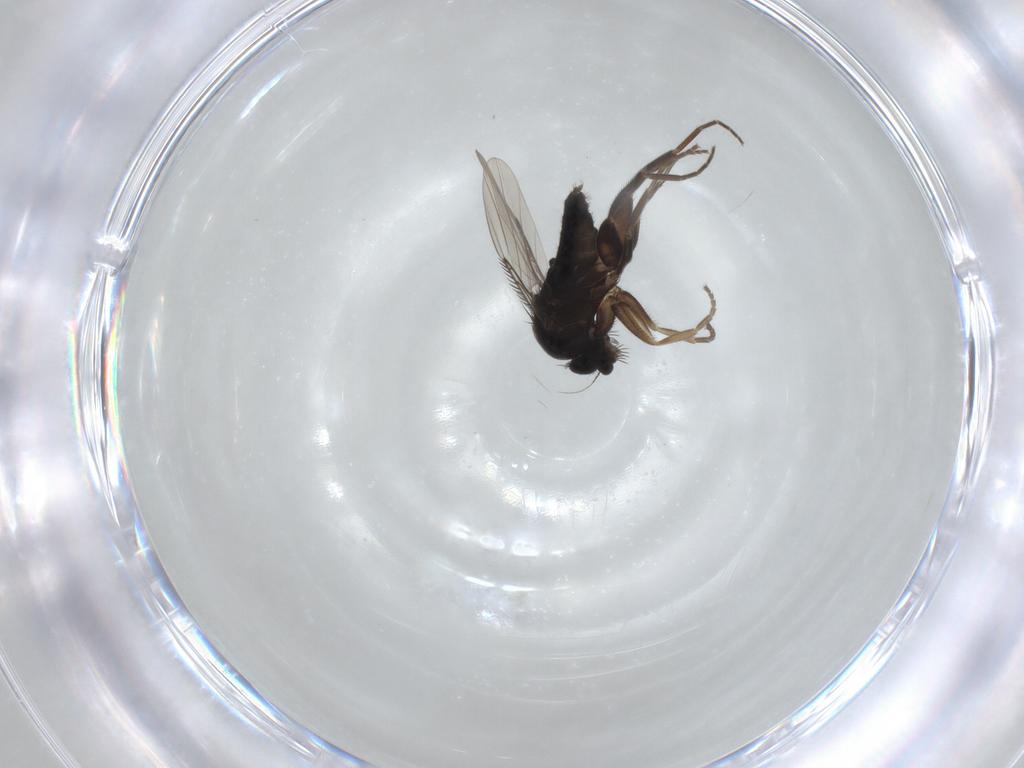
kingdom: Animalia
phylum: Arthropoda
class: Insecta
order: Diptera
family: Phoridae
